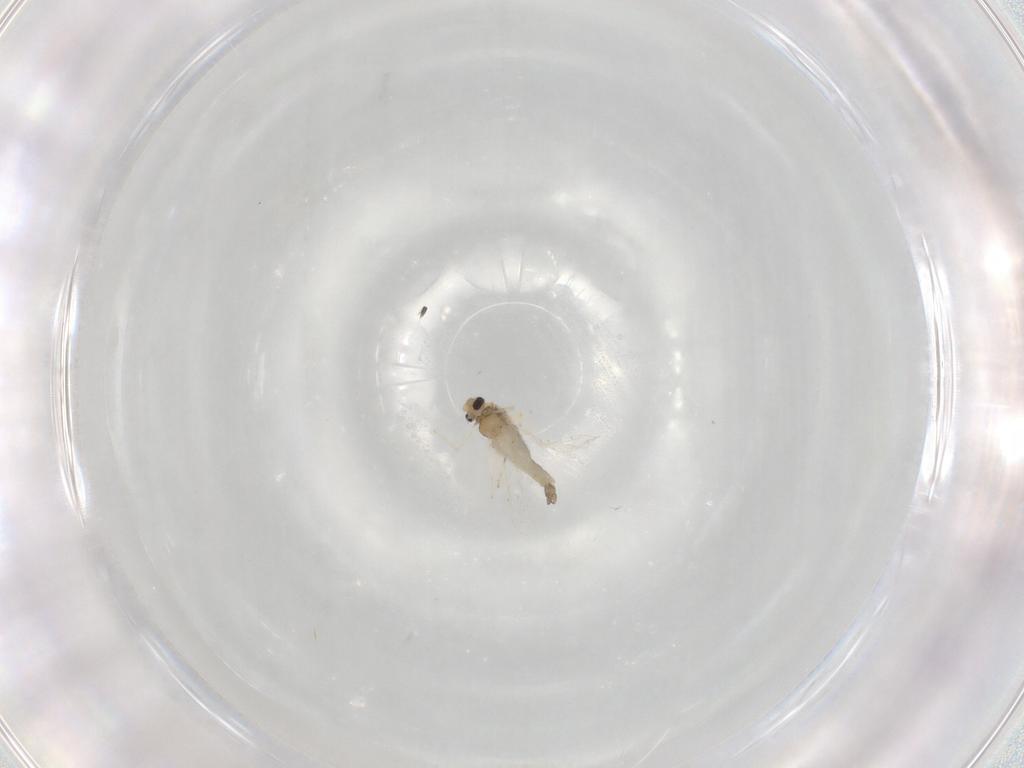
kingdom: Animalia
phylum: Arthropoda
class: Insecta
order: Diptera
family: Chironomidae
